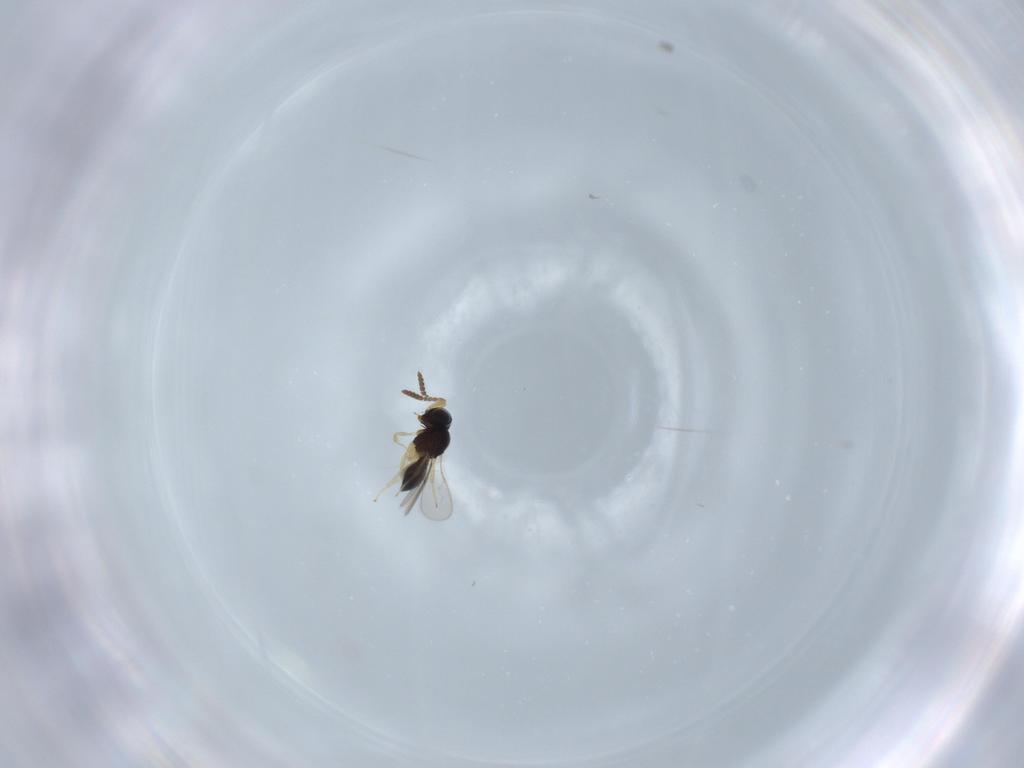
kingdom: Animalia
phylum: Arthropoda
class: Insecta
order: Hymenoptera
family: Scelionidae
